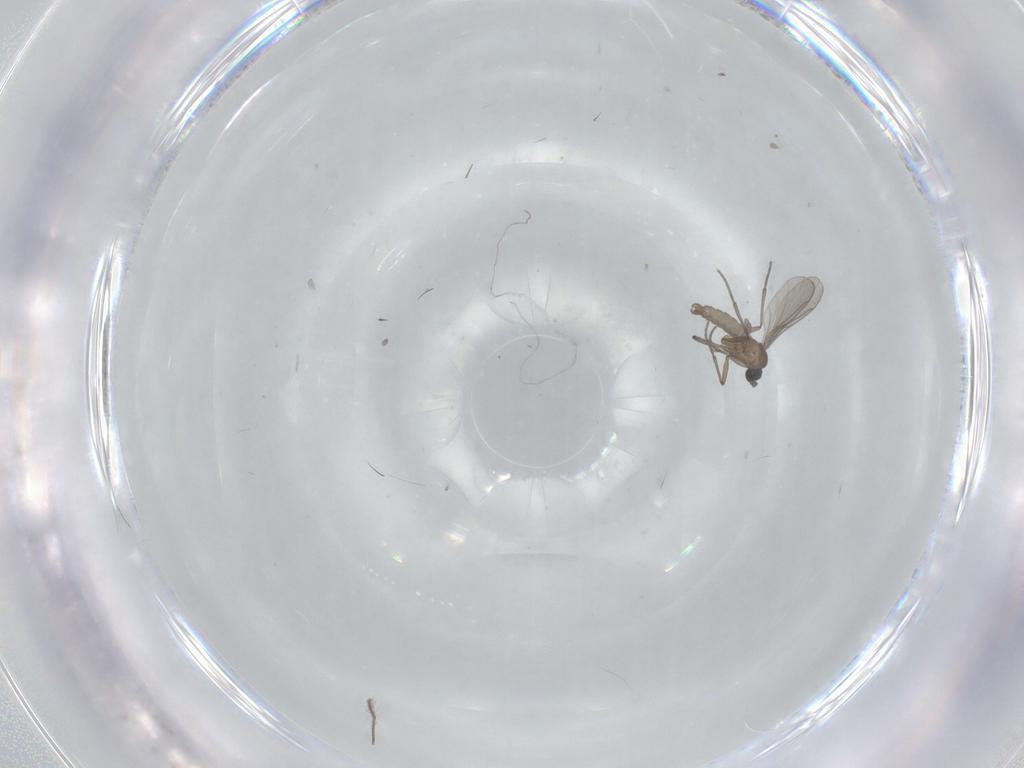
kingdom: Animalia
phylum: Arthropoda
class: Insecta
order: Diptera
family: Sciaridae
